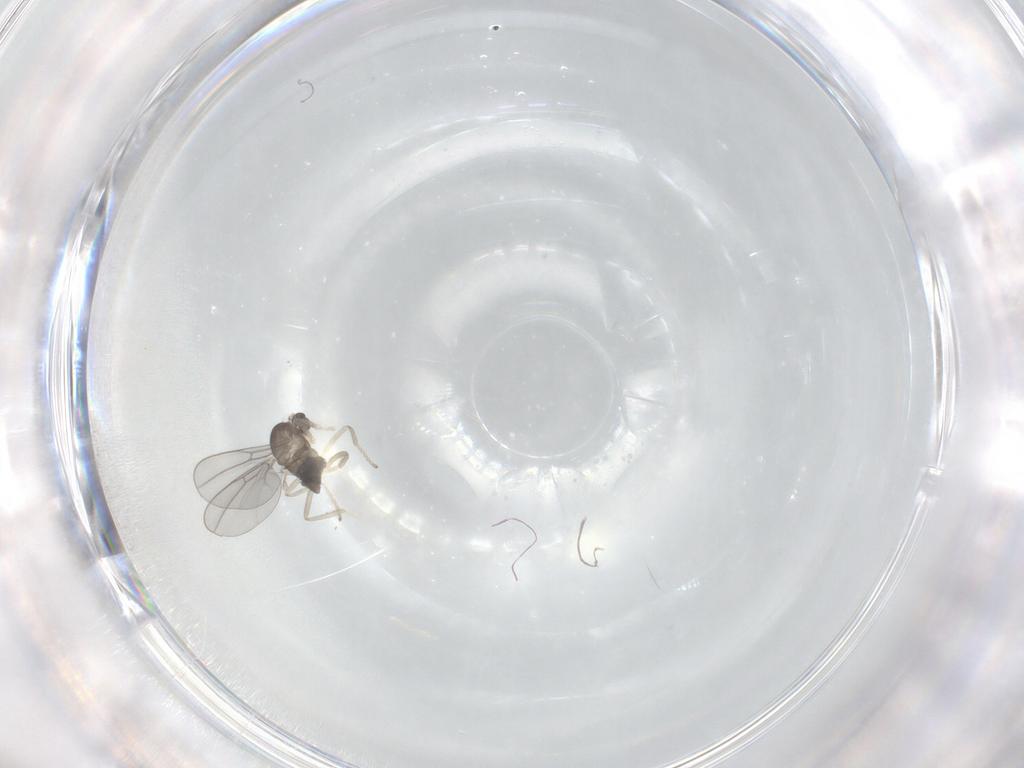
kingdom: Animalia
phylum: Arthropoda
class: Insecta
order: Diptera
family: Cecidomyiidae
